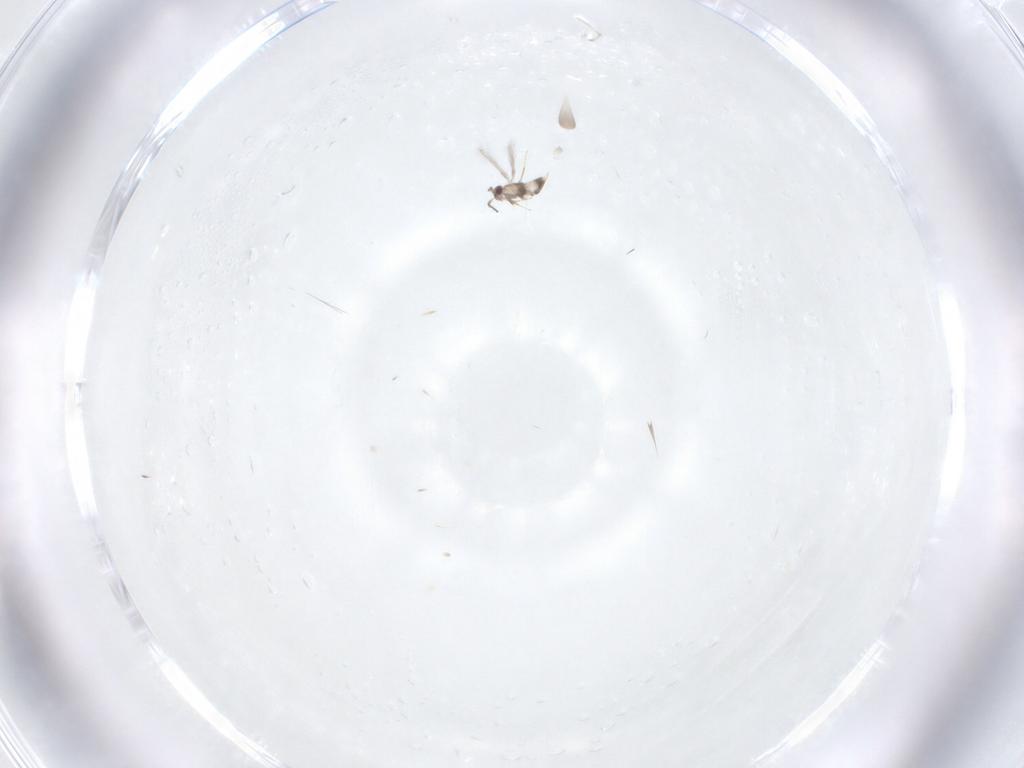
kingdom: Animalia
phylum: Arthropoda
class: Insecta
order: Hymenoptera
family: Mymaridae
